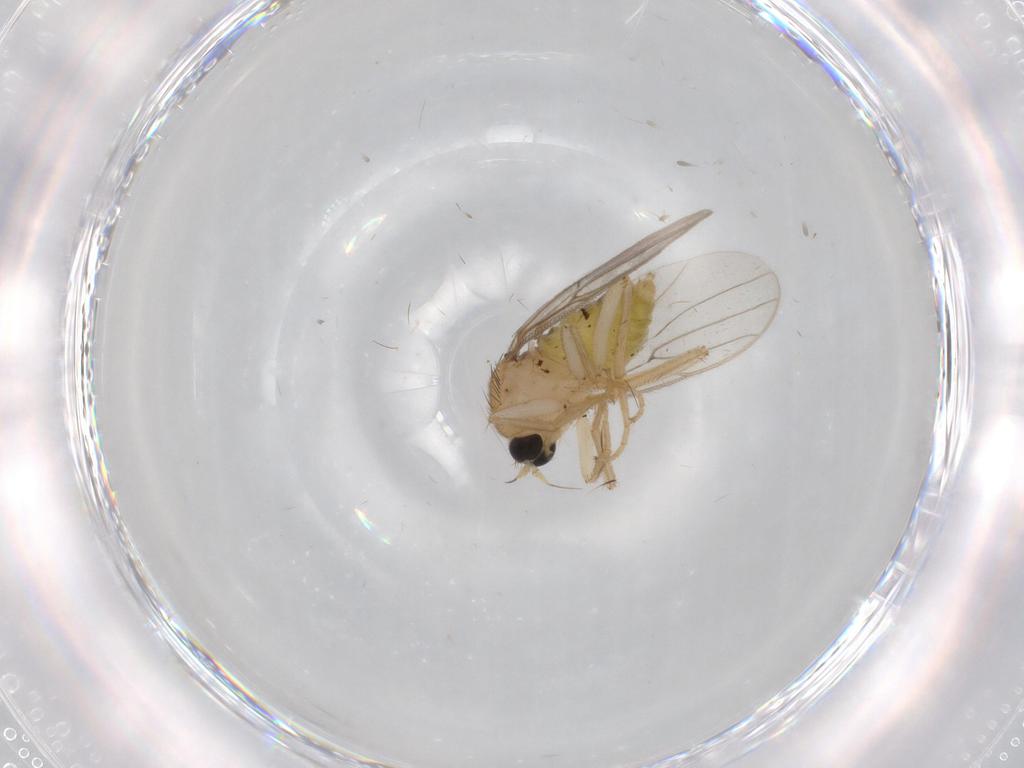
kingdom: Animalia
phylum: Arthropoda
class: Insecta
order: Diptera
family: Hybotidae
